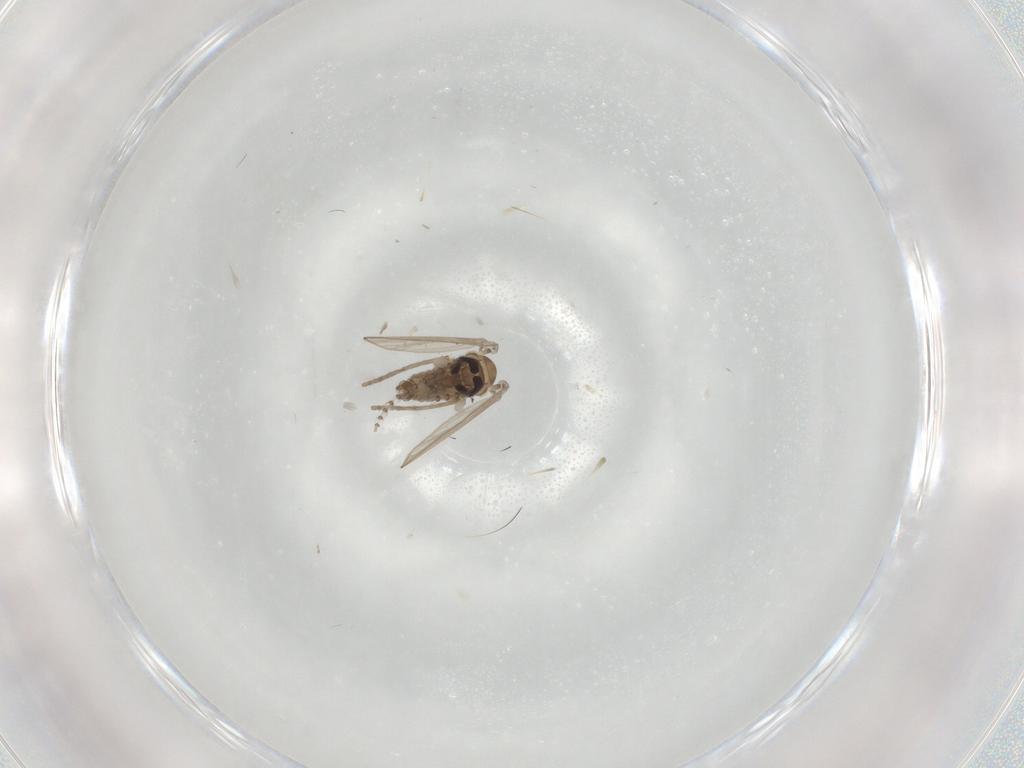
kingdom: Animalia
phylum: Arthropoda
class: Insecta
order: Diptera
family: Psychodidae
